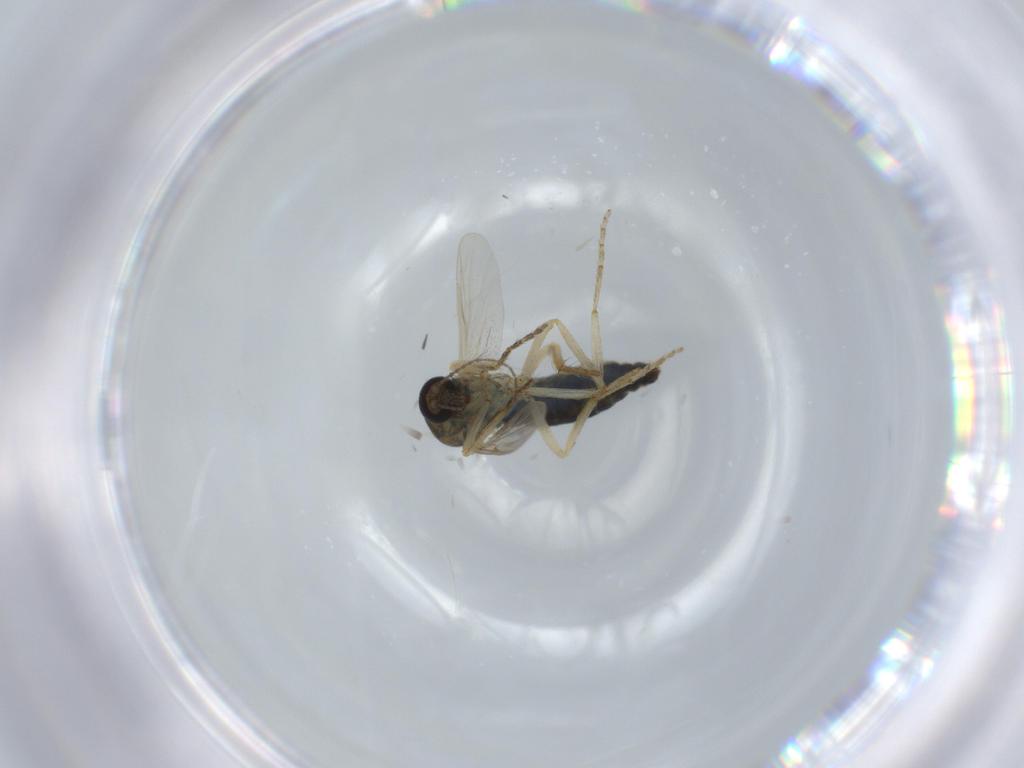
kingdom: Animalia
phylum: Arthropoda
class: Insecta
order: Diptera
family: Ceratopogonidae
